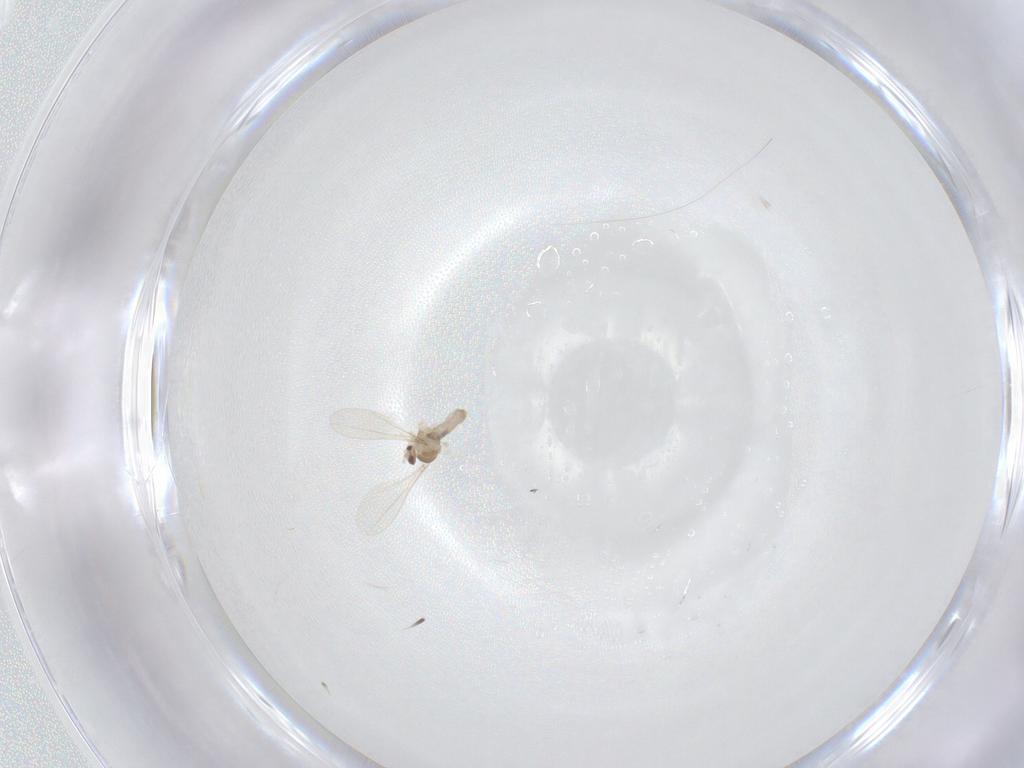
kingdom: Animalia
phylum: Arthropoda
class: Insecta
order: Diptera
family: Cecidomyiidae
